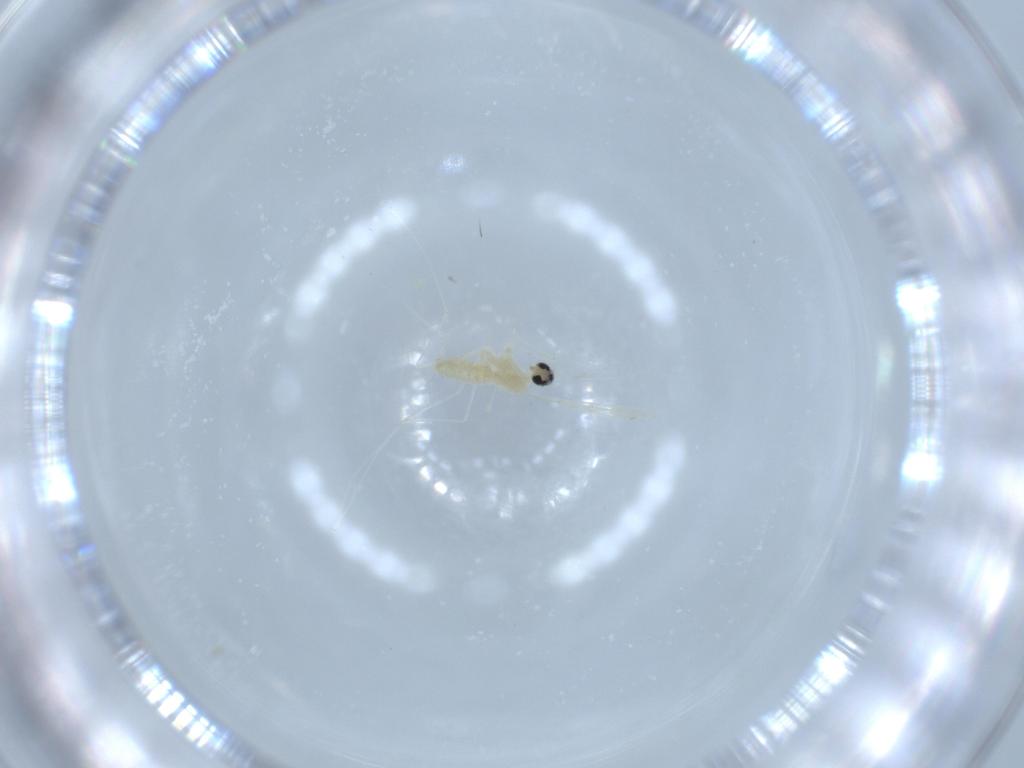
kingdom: Animalia
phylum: Arthropoda
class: Insecta
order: Diptera
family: Cecidomyiidae
